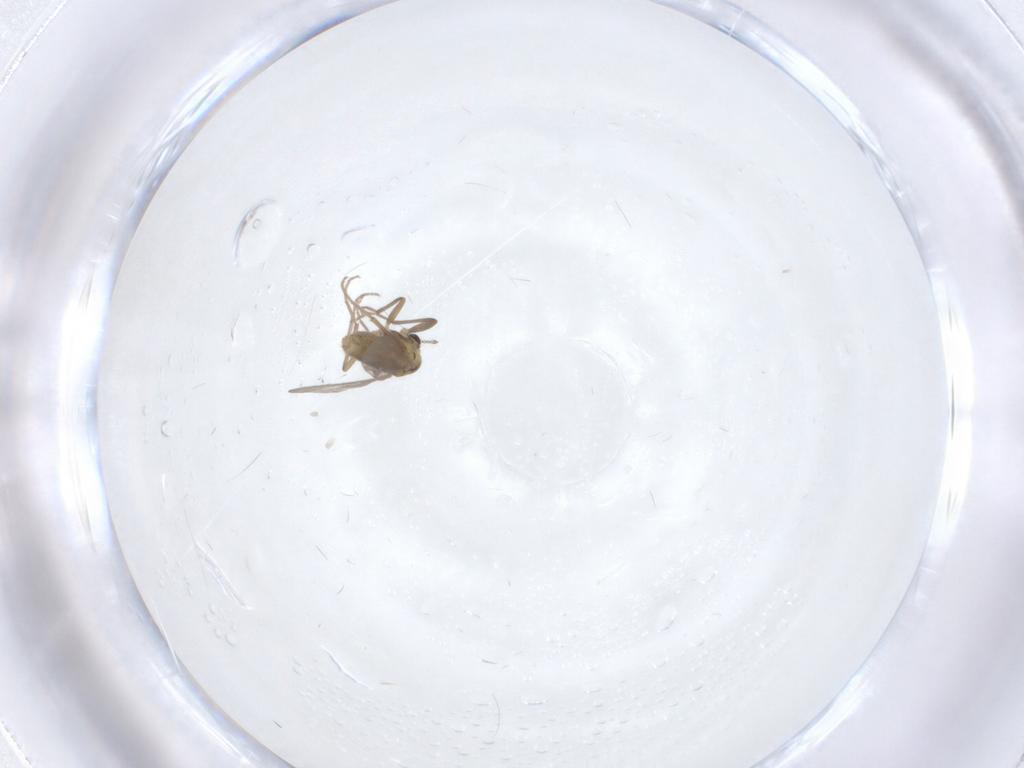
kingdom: Animalia
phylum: Arthropoda
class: Insecta
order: Diptera
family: Chironomidae
